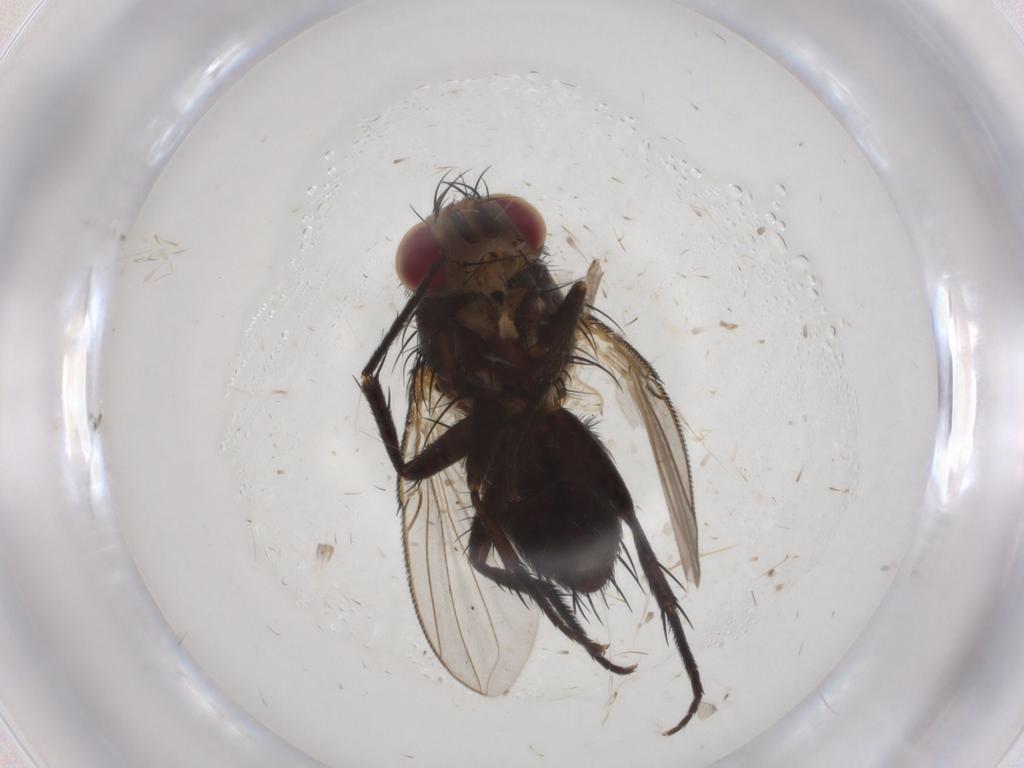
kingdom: Animalia
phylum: Arthropoda
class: Insecta
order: Diptera
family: Tachinidae
